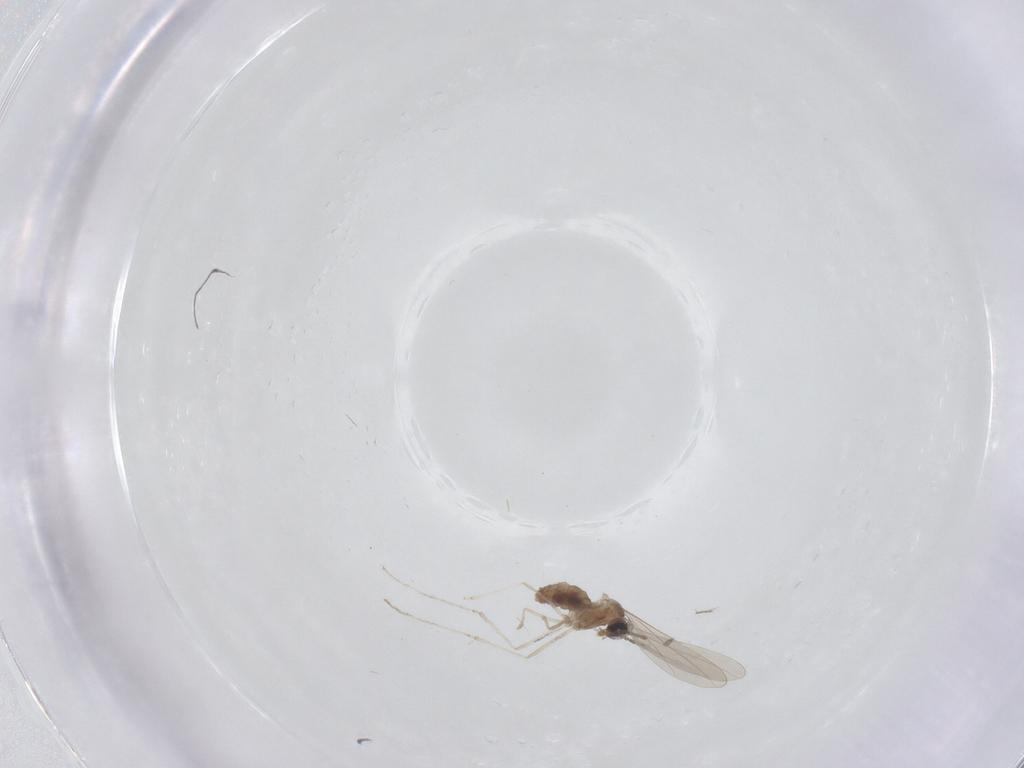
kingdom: Animalia
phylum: Arthropoda
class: Insecta
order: Diptera
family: Cecidomyiidae
